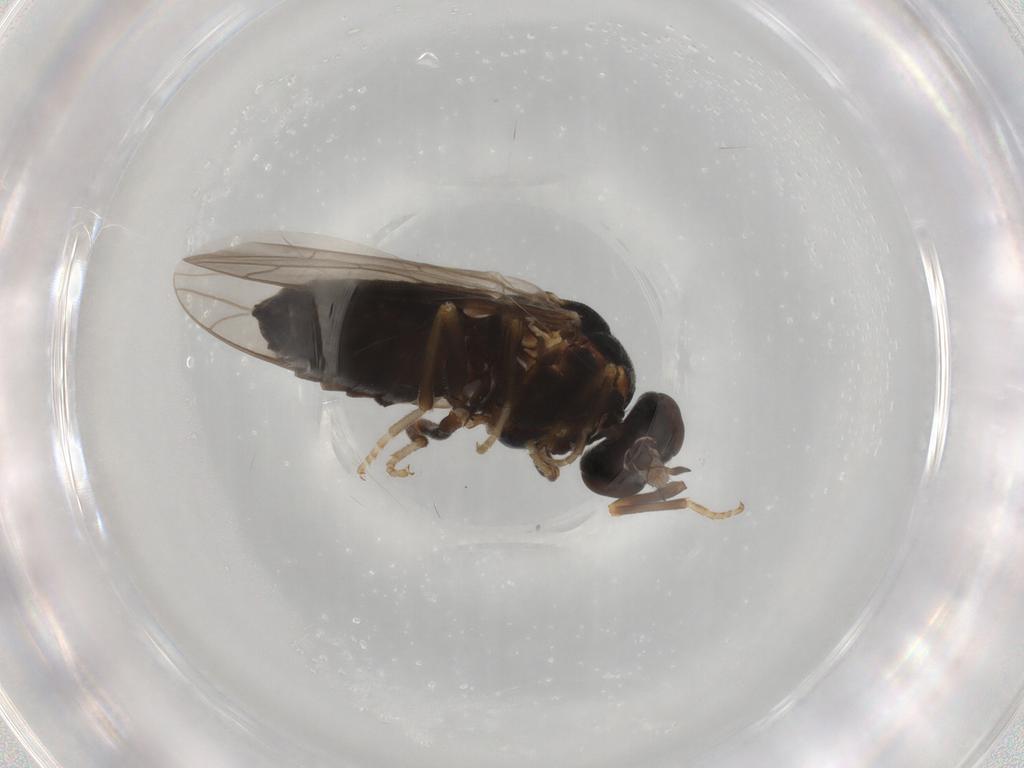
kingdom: Animalia
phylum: Arthropoda
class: Insecta
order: Diptera
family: Scenopinidae
